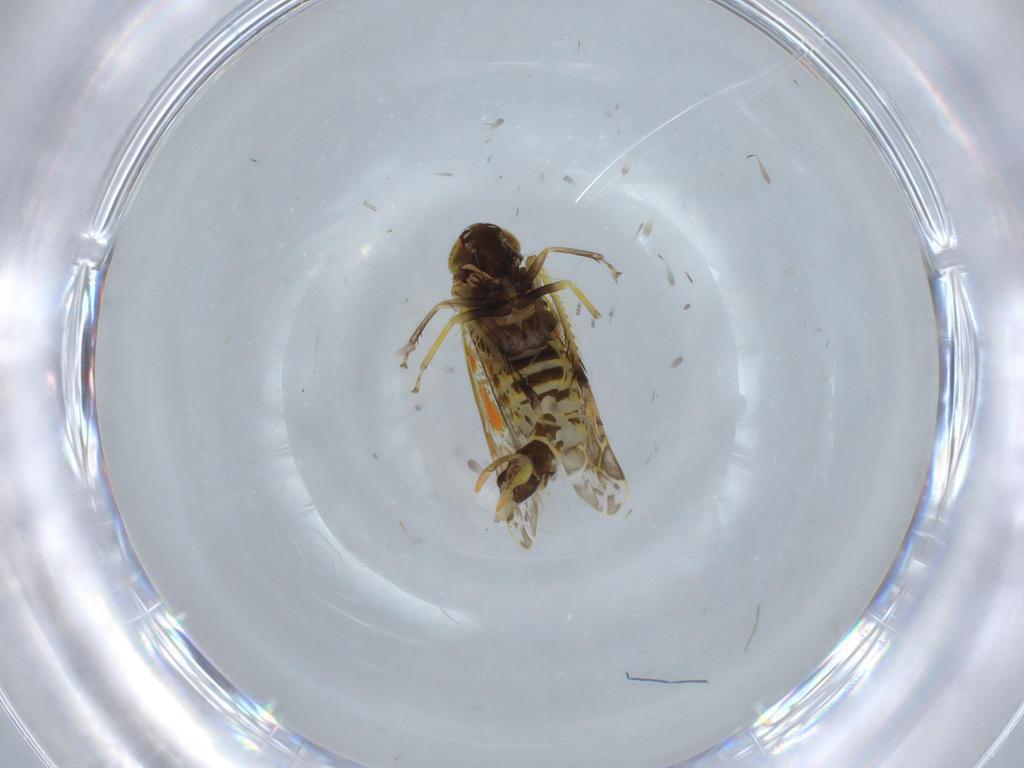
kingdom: Animalia
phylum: Arthropoda
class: Insecta
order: Hemiptera
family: Cicadellidae
